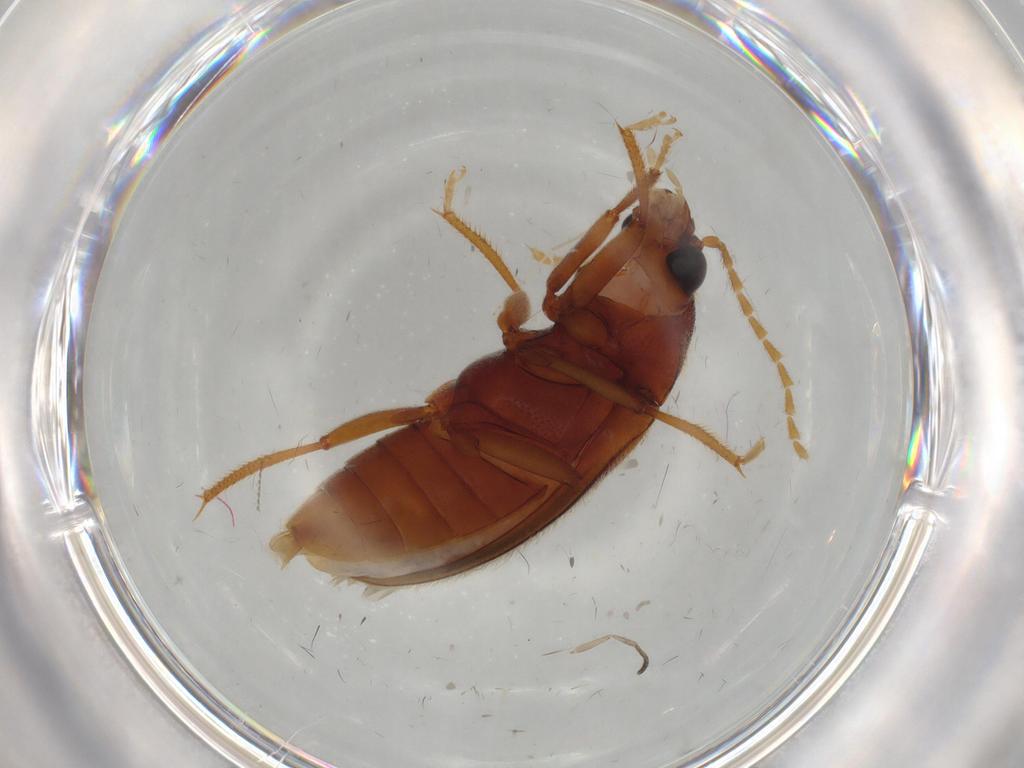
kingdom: Animalia
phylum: Arthropoda
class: Insecta
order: Coleoptera
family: Ptilodactylidae
